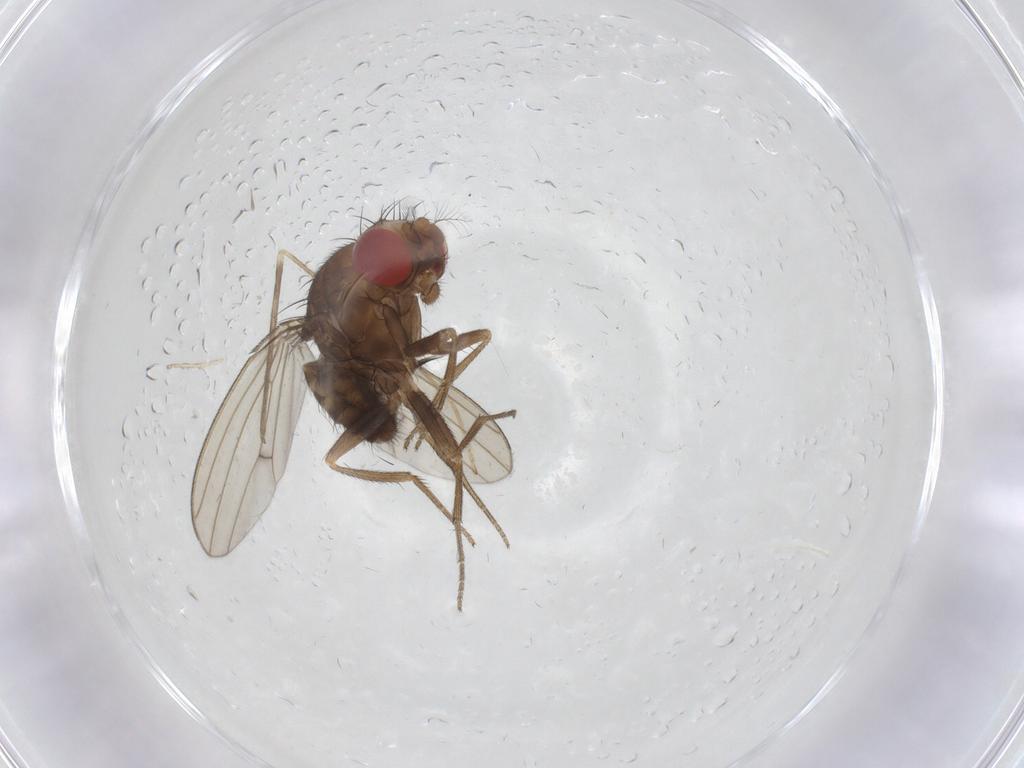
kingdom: Animalia
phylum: Arthropoda
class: Insecta
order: Diptera
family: Drosophilidae
